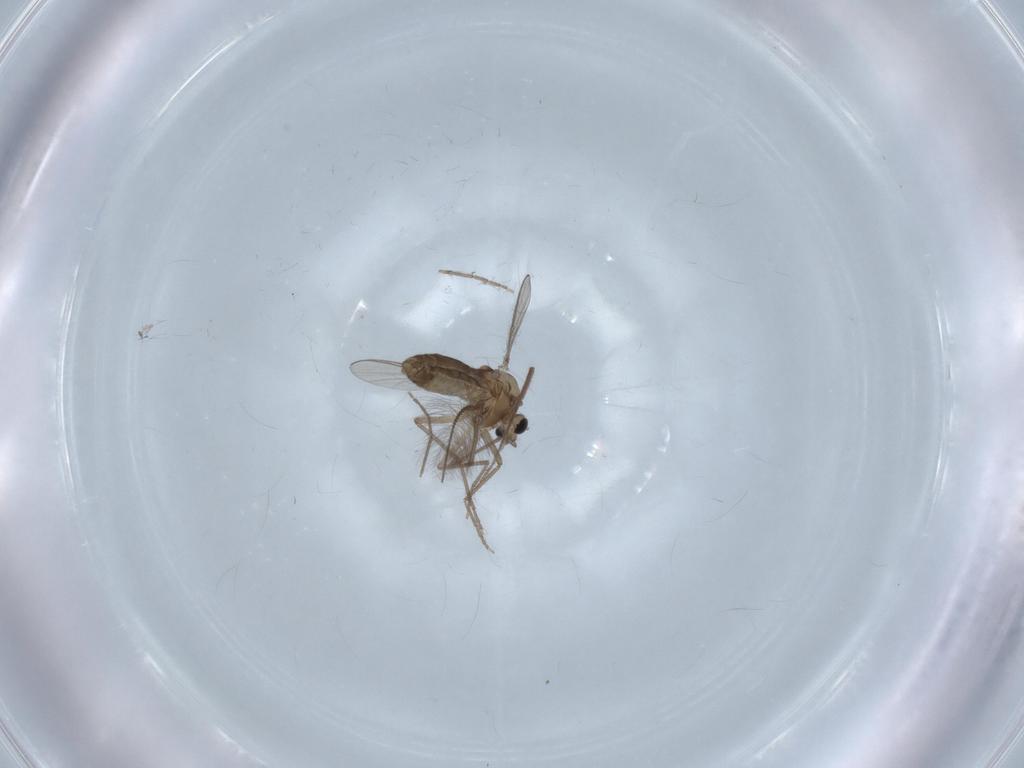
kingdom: Animalia
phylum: Arthropoda
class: Insecta
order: Diptera
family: Chironomidae
